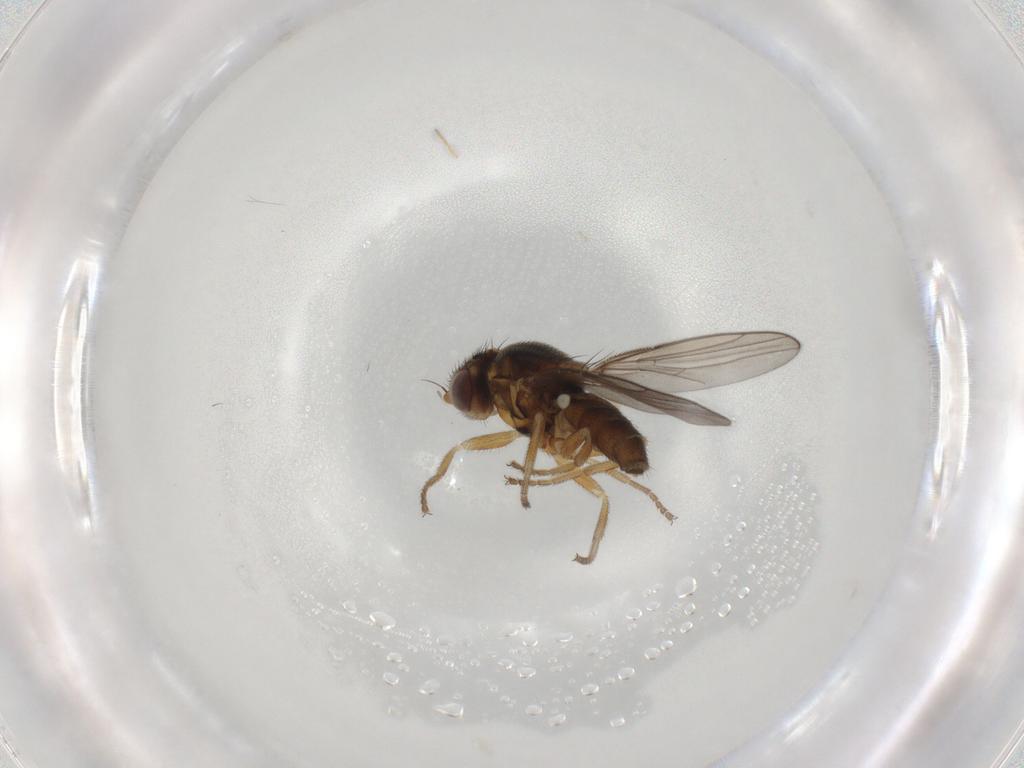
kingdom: Animalia
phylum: Arthropoda
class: Insecta
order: Diptera
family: Chloropidae
